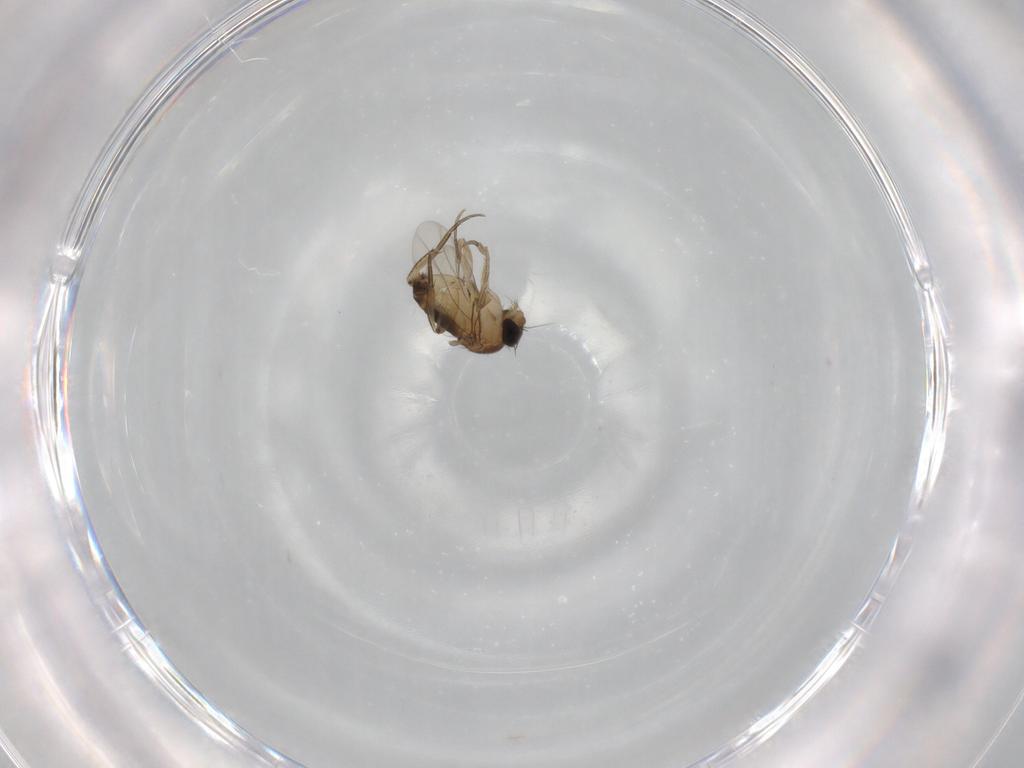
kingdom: Animalia
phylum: Arthropoda
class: Insecta
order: Diptera
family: Phoridae
